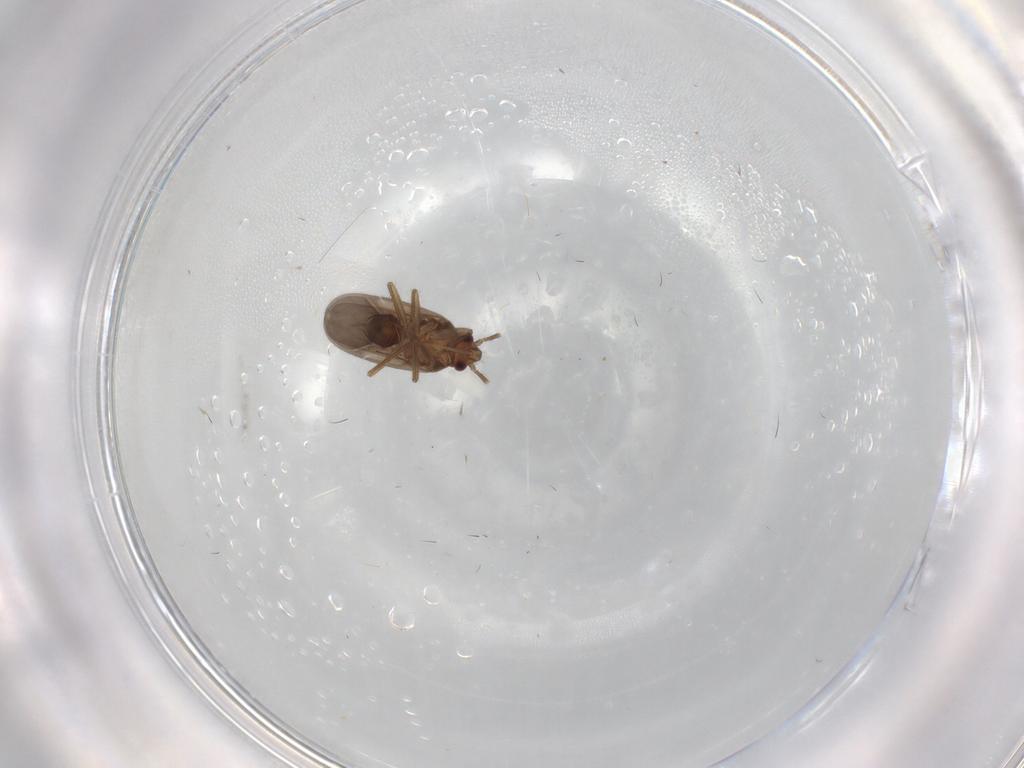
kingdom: Animalia
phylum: Arthropoda
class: Insecta
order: Hemiptera
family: Ceratocombidae
